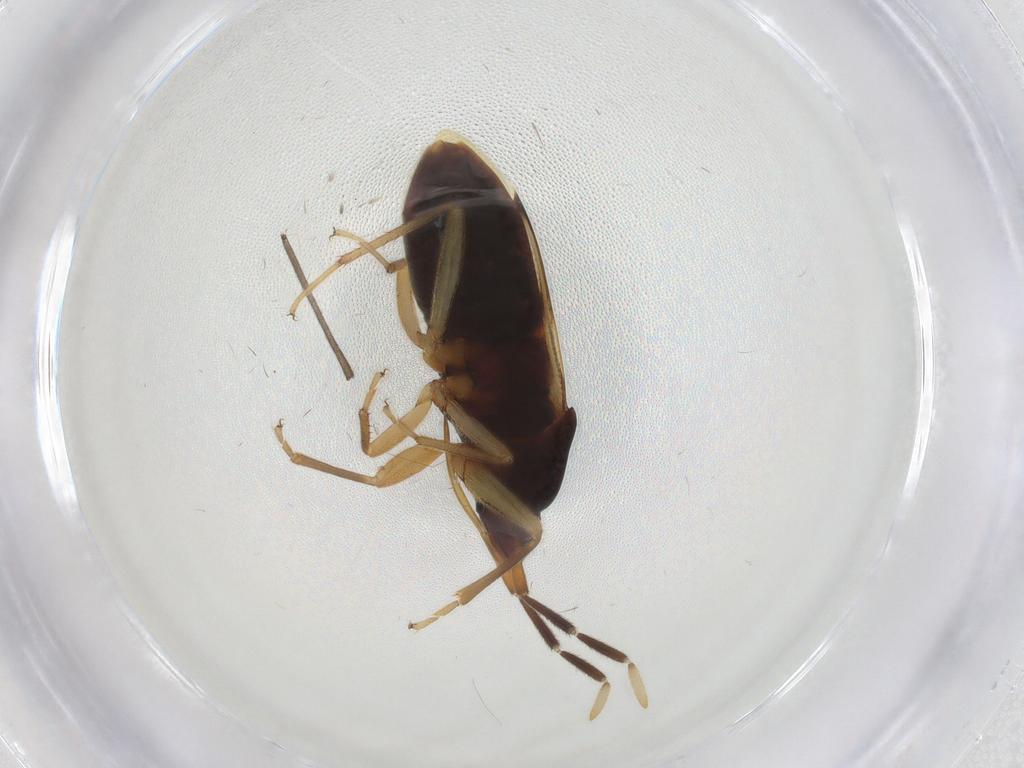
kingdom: Animalia
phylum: Arthropoda
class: Insecta
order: Hemiptera
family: Rhyparochromidae
